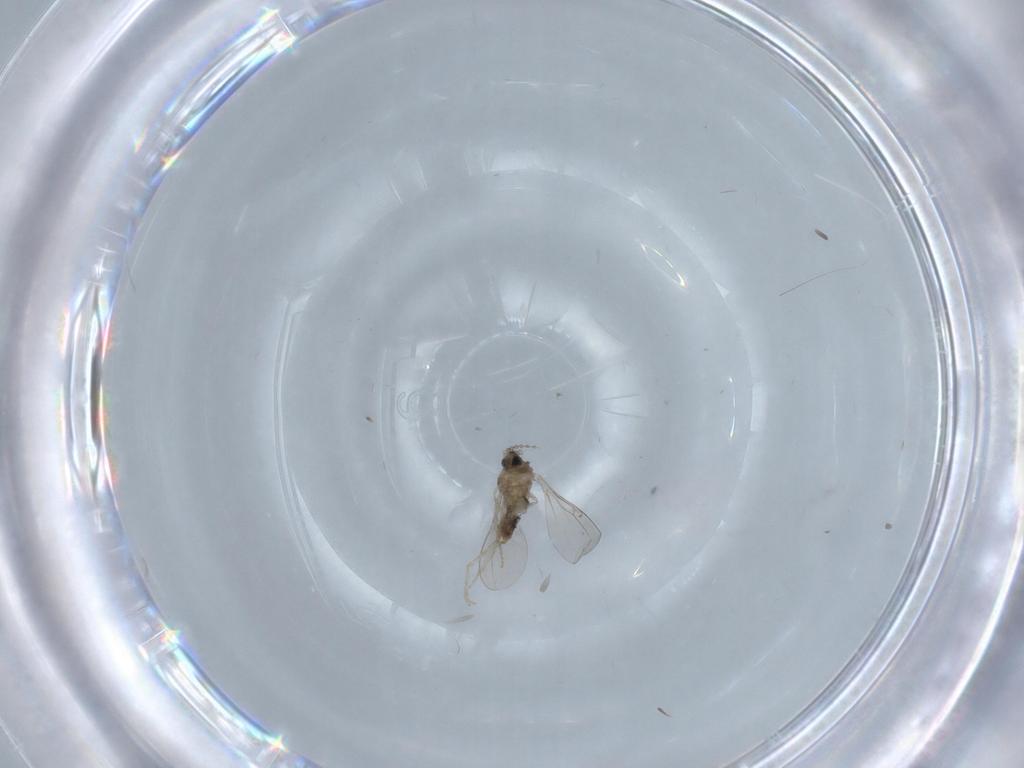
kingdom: Animalia
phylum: Arthropoda
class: Insecta
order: Diptera
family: Cecidomyiidae
